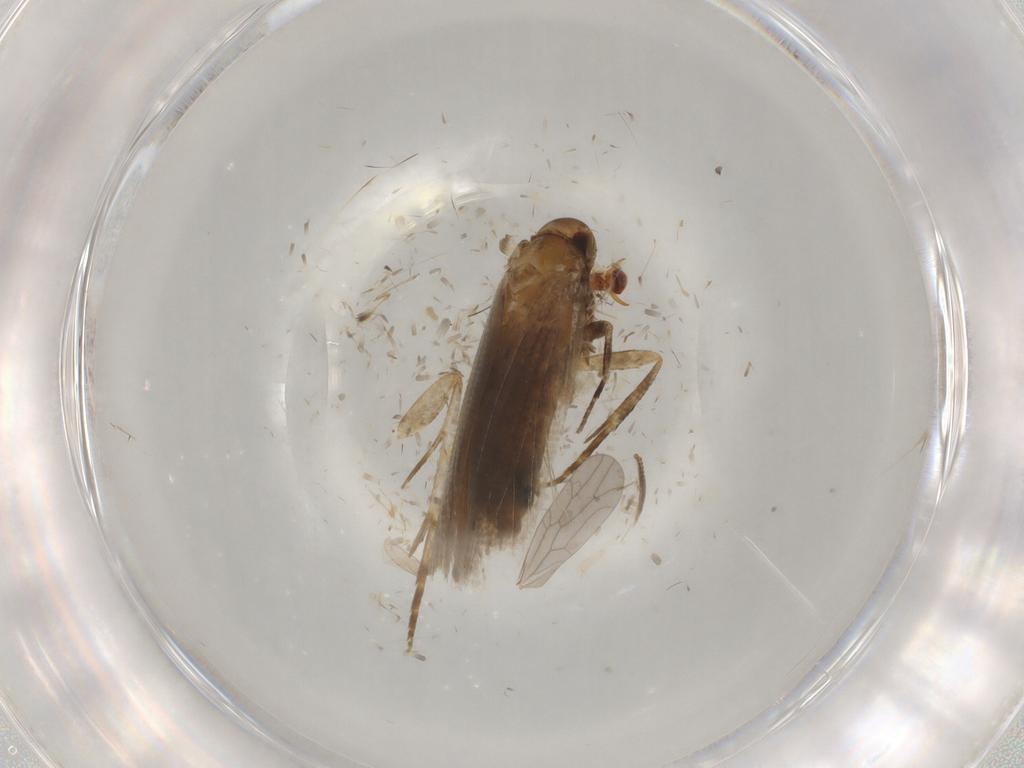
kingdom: Animalia
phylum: Arthropoda
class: Insecta
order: Lepidoptera
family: Cosmopterigidae
